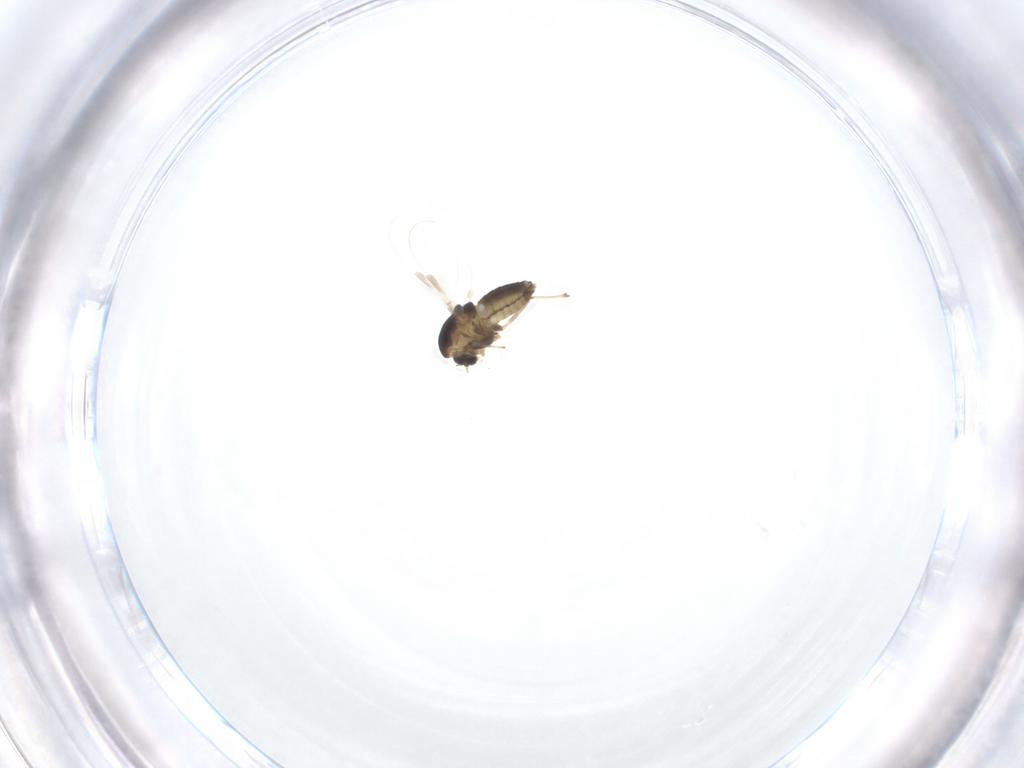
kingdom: Animalia
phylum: Arthropoda
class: Insecta
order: Diptera
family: Chironomidae
